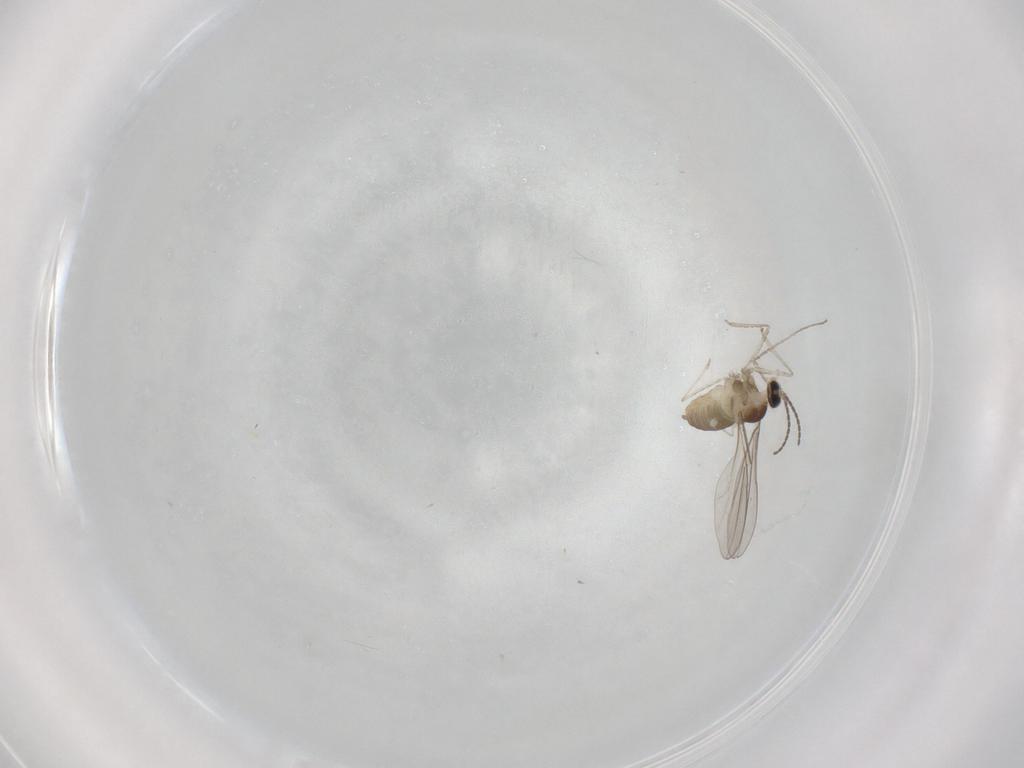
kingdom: Animalia
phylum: Arthropoda
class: Insecta
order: Diptera
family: Cecidomyiidae
